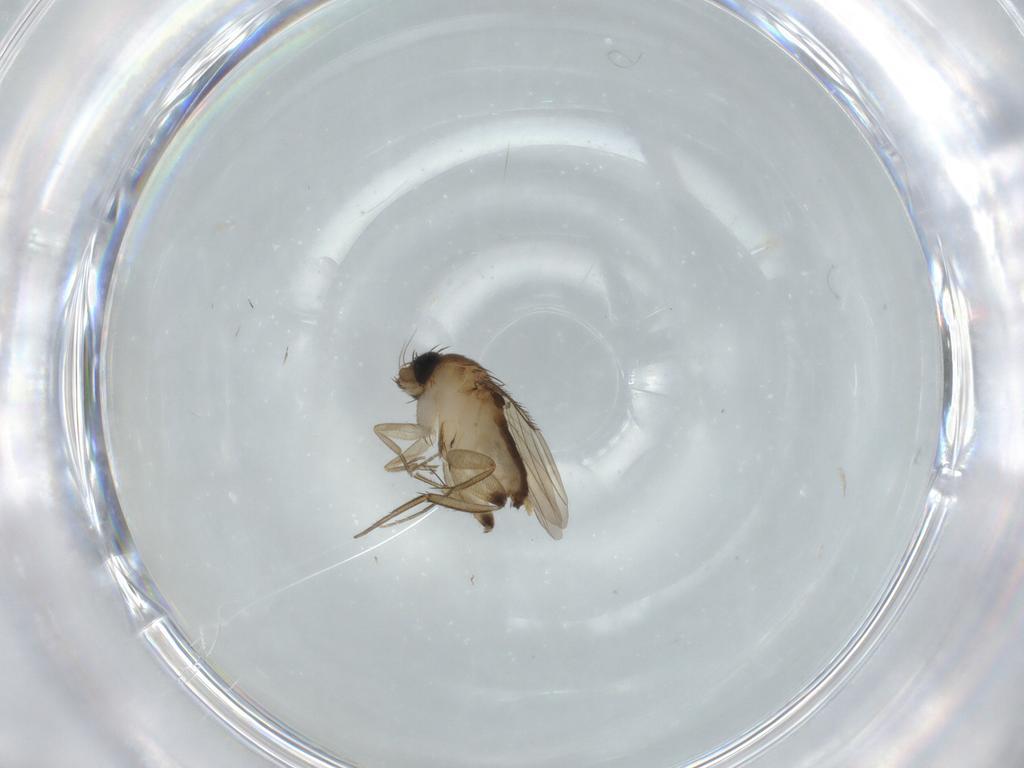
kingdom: Animalia
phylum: Arthropoda
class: Insecta
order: Diptera
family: Phoridae
